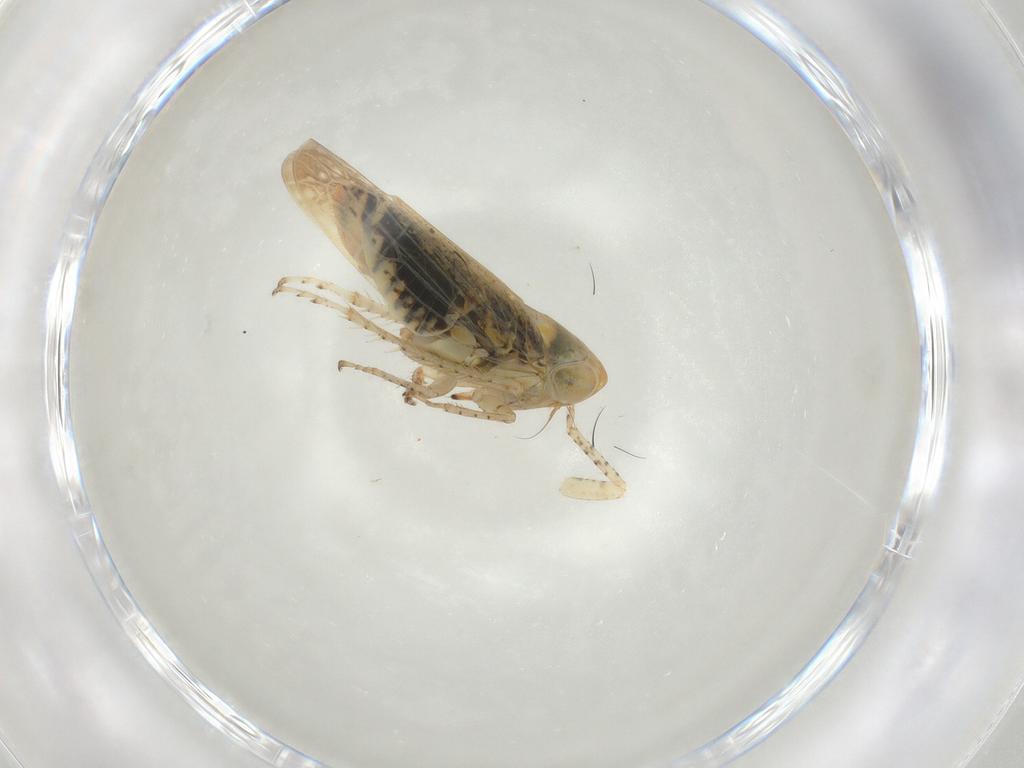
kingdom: Animalia
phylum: Arthropoda
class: Insecta
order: Hemiptera
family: Cicadellidae
